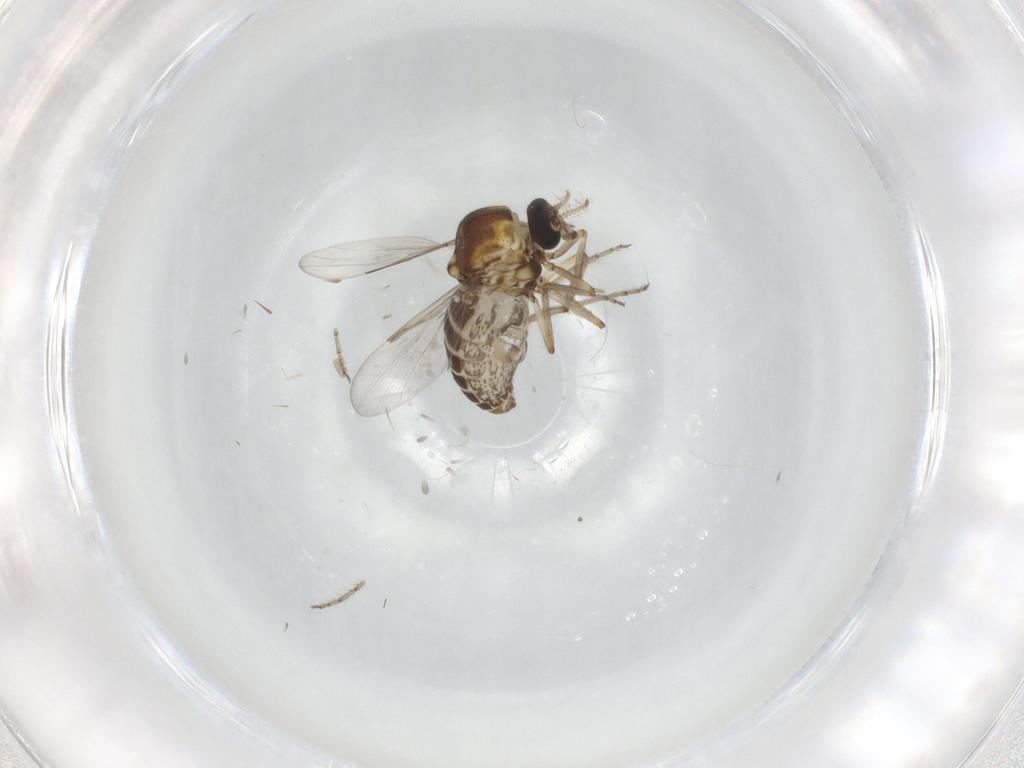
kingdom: Animalia
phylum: Arthropoda
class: Insecta
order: Diptera
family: Ceratopogonidae
